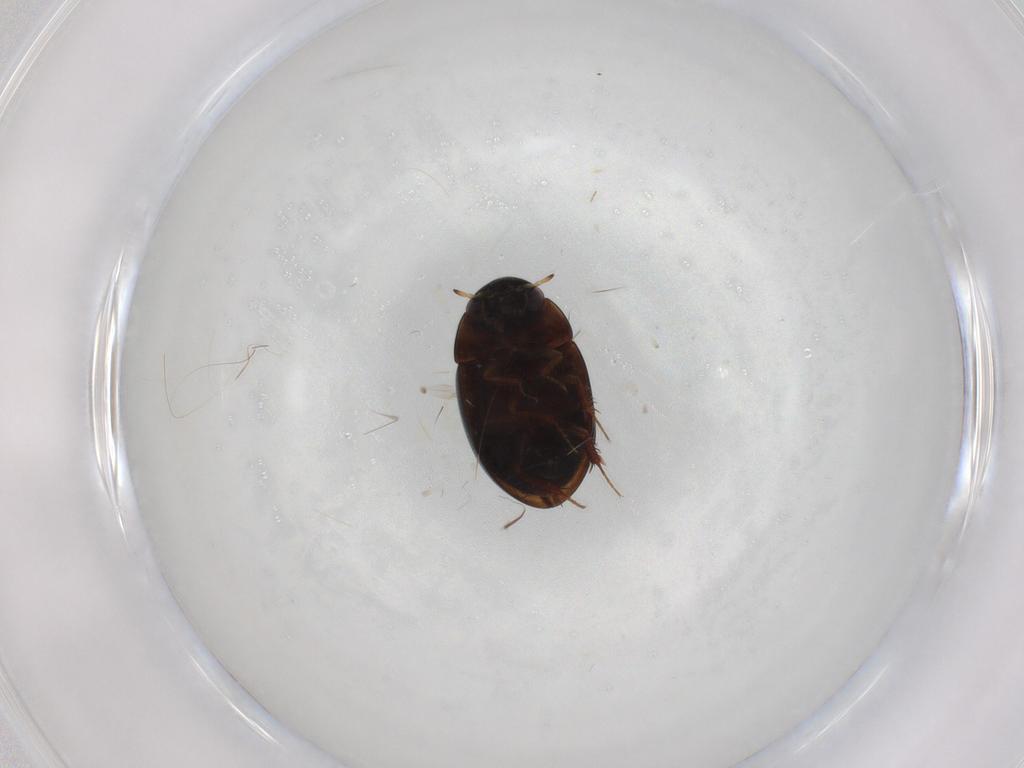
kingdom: Animalia
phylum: Arthropoda
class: Insecta
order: Coleoptera
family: Hydrophilidae
